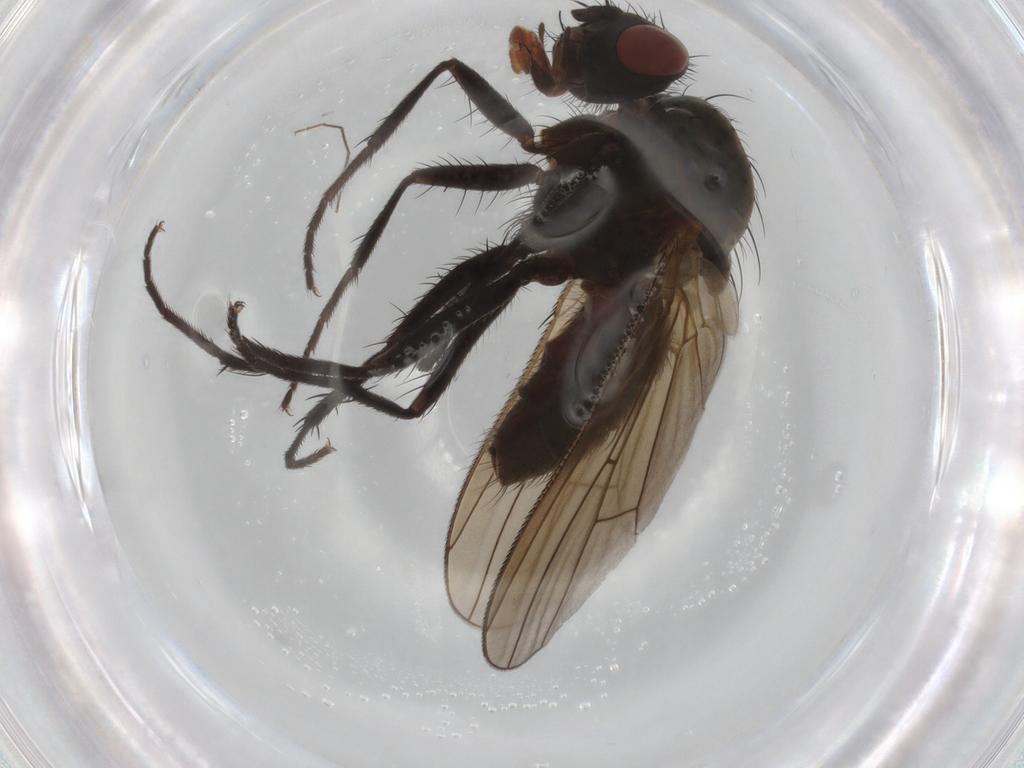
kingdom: Animalia
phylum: Arthropoda
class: Insecta
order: Diptera
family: Anthomyiidae
